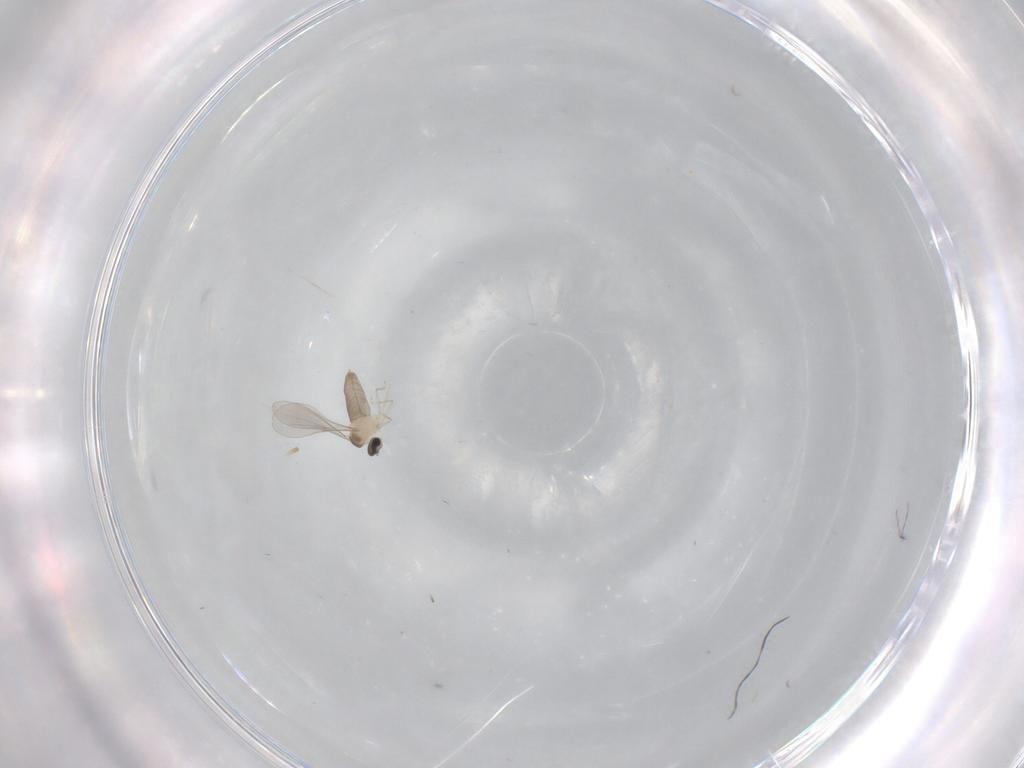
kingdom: Animalia
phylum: Arthropoda
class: Insecta
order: Diptera
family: Cecidomyiidae
